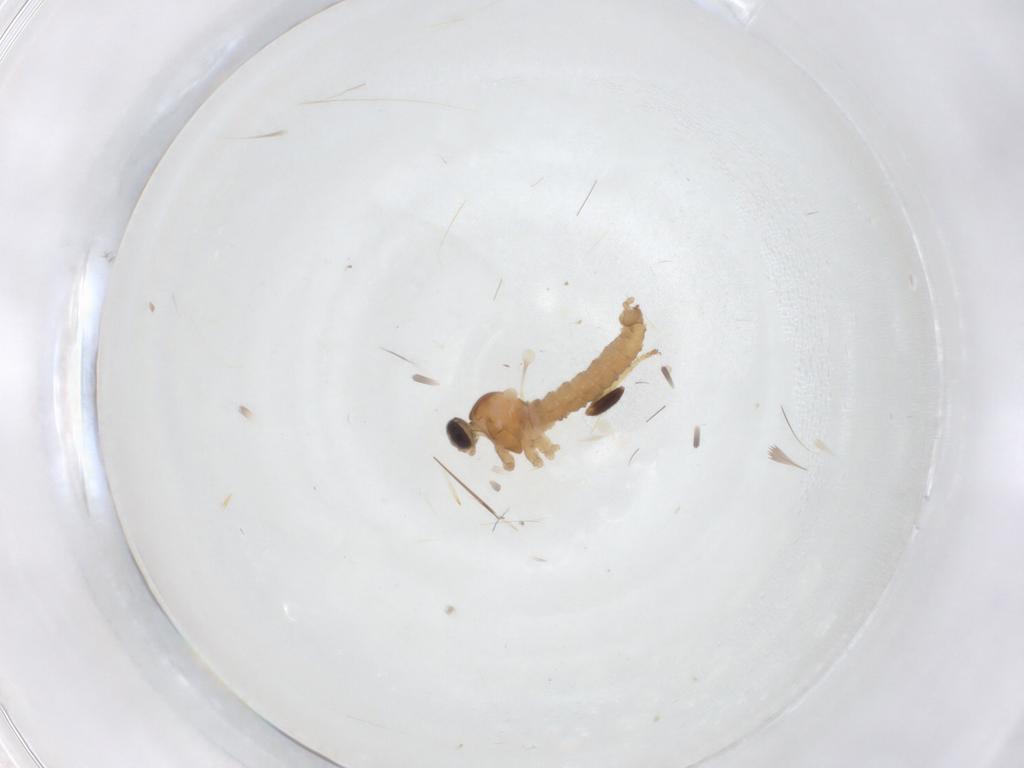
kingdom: Animalia
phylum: Arthropoda
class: Insecta
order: Diptera
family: Cecidomyiidae
